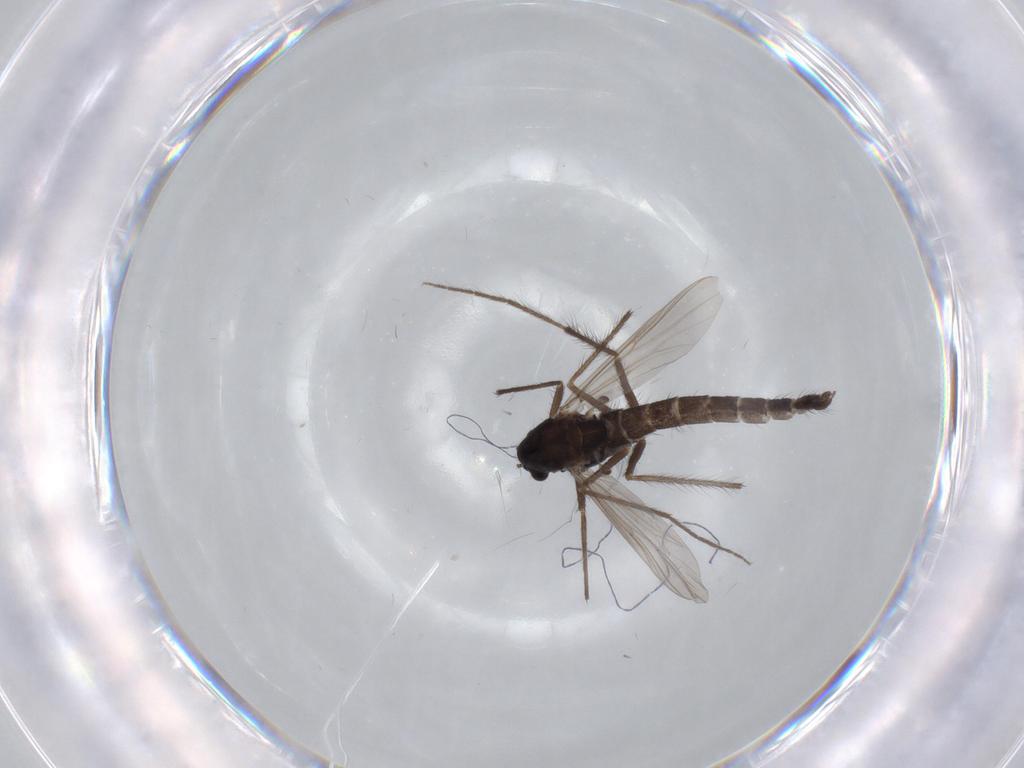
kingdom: Animalia
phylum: Arthropoda
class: Insecta
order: Diptera
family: Chironomidae
